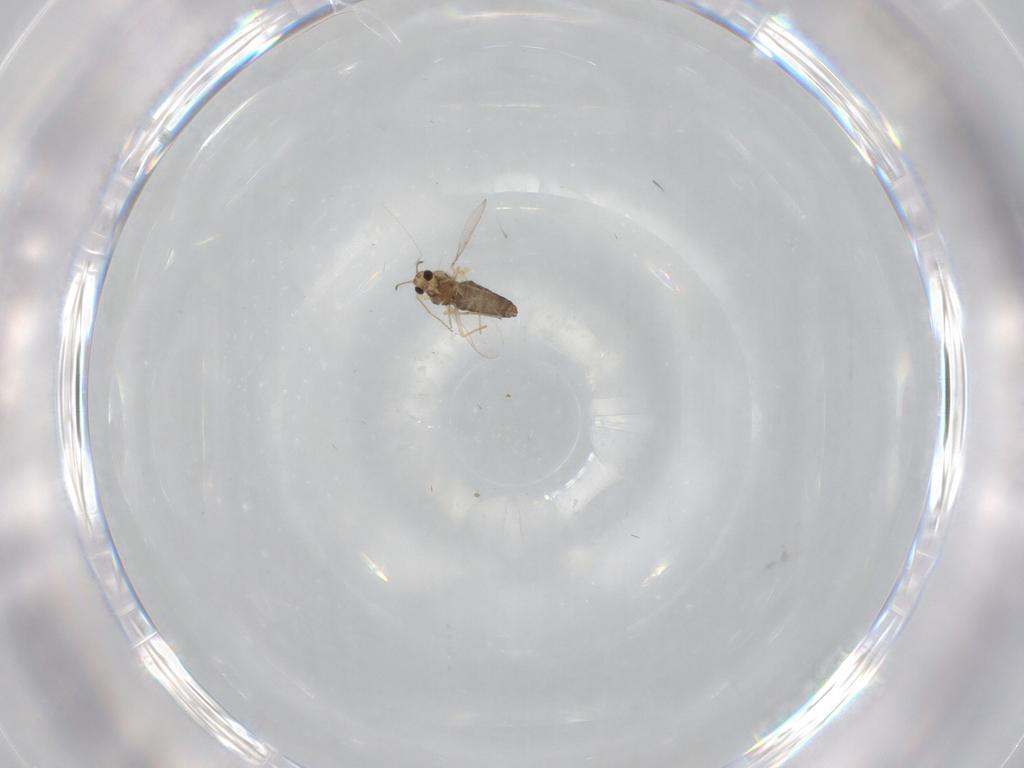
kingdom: Animalia
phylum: Arthropoda
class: Insecta
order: Diptera
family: Chironomidae
